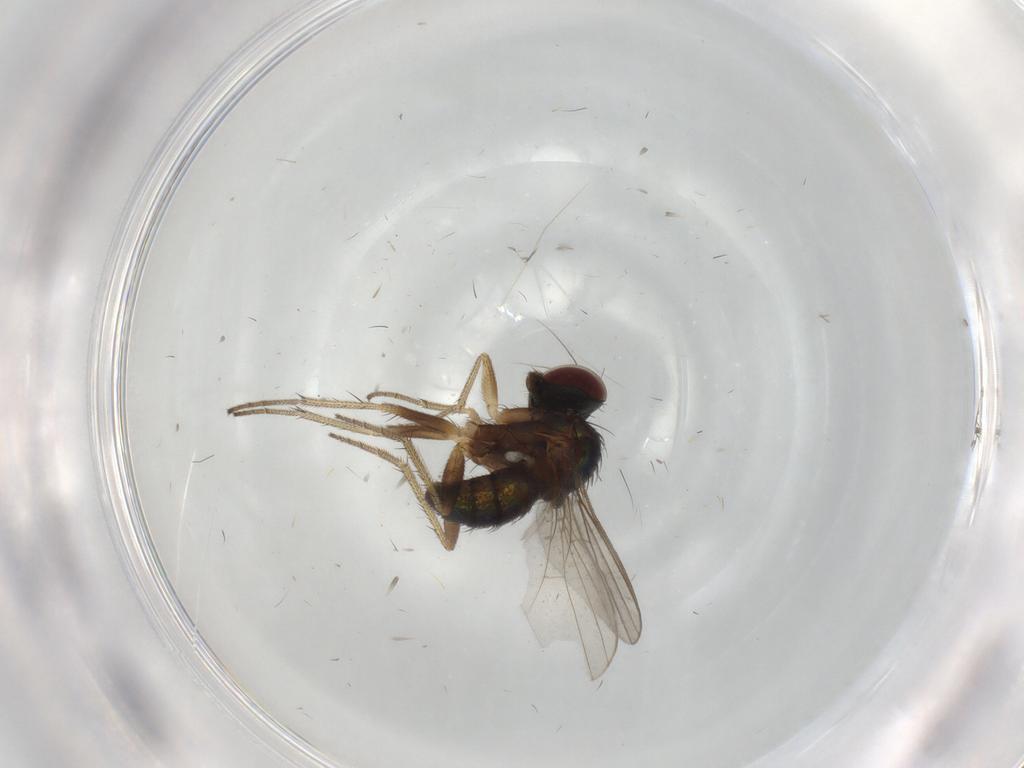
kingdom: Animalia
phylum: Arthropoda
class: Insecta
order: Diptera
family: Dolichopodidae
